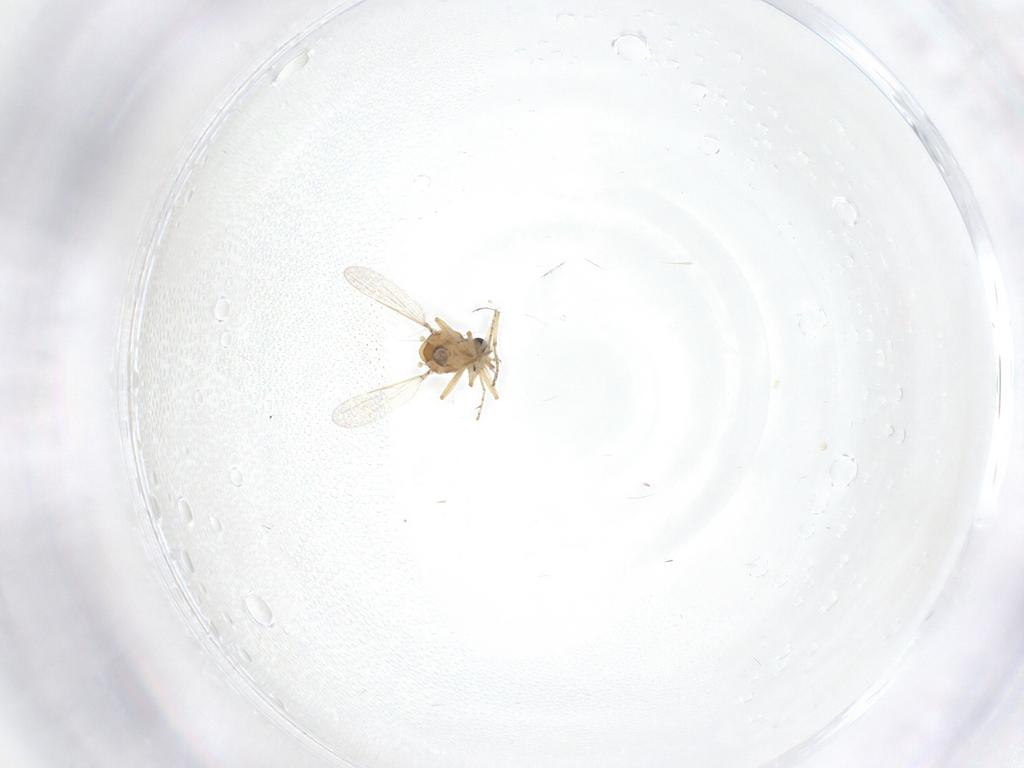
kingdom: Animalia
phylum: Arthropoda
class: Insecta
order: Diptera
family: Ceratopogonidae
